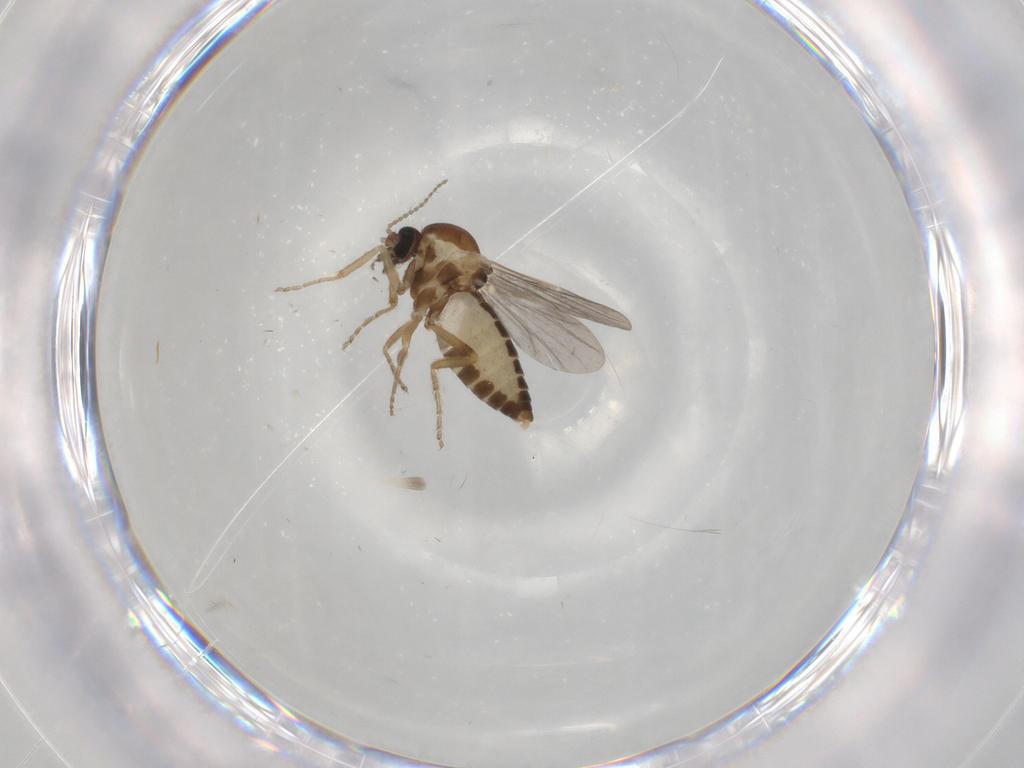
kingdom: Animalia
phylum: Arthropoda
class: Insecta
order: Diptera
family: Ceratopogonidae
